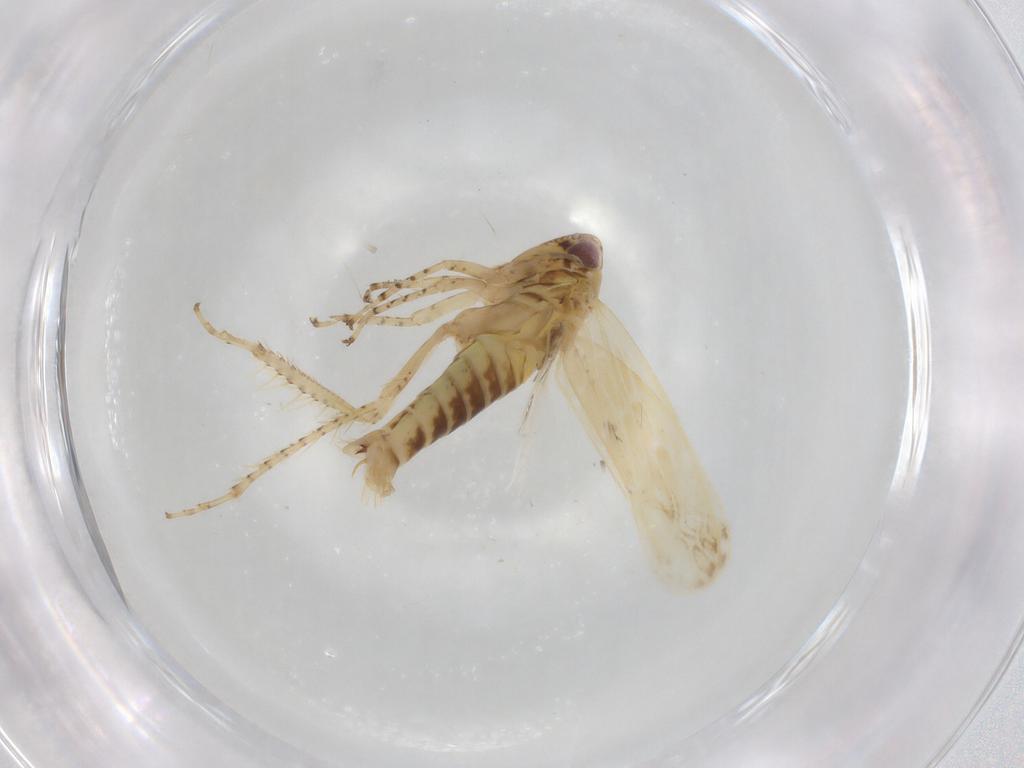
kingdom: Animalia
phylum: Arthropoda
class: Insecta
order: Hemiptera
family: Cicadellidae
